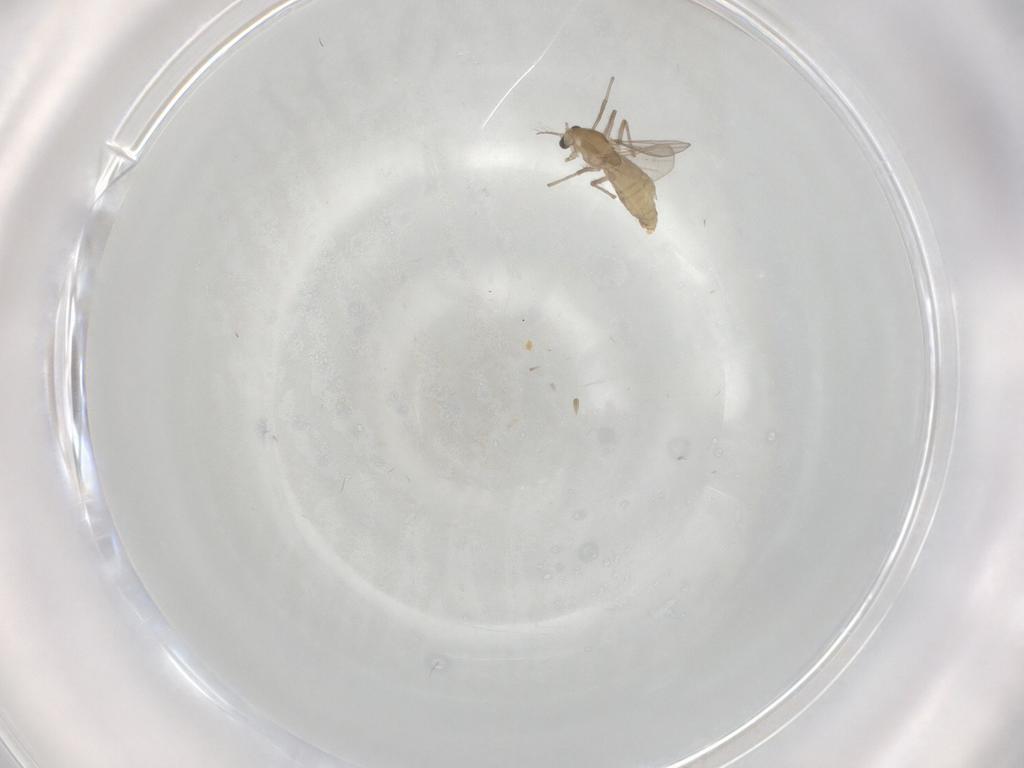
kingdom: Animalia
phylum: Arthropoda
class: Insecta
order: Diptera
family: Chironomidae
